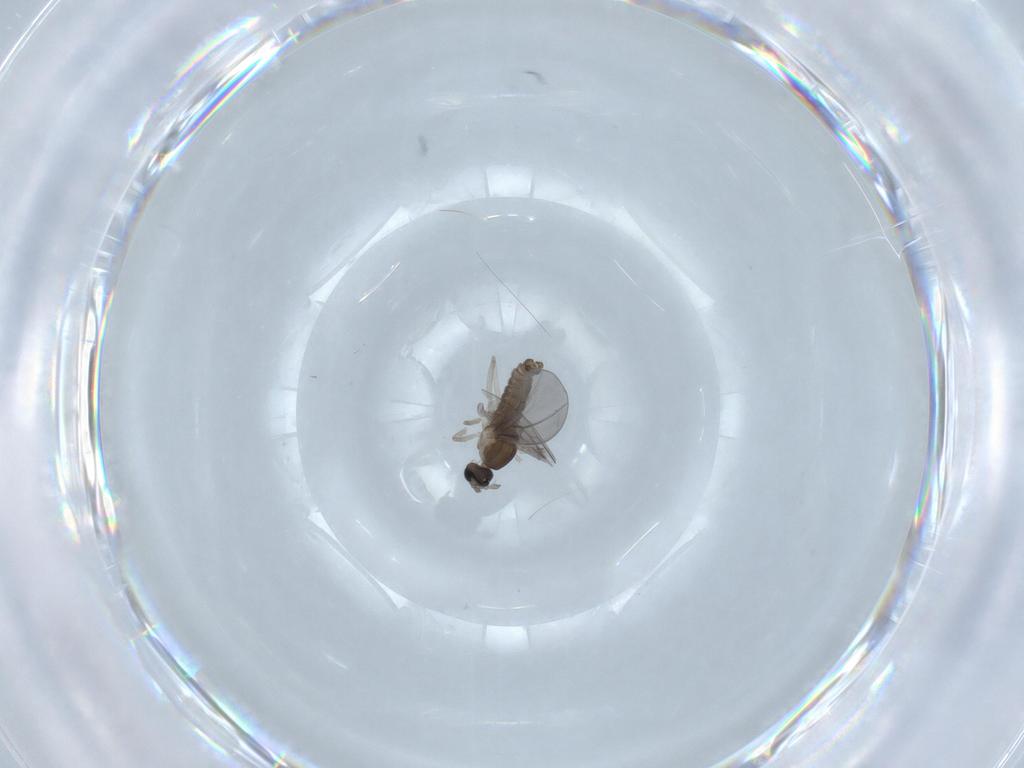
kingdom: Animalia
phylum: Arthropoda
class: Insecta
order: Diptera
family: Cecidomyiidae
